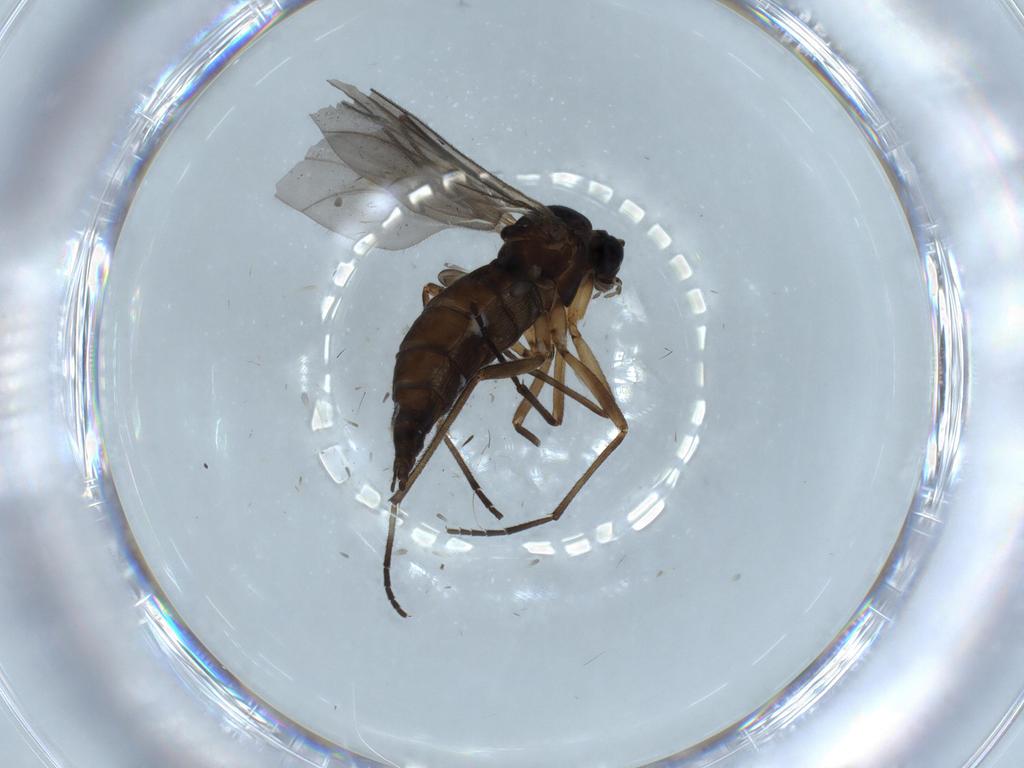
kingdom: Animalia
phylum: Arthropoda
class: Insecta
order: Diptera
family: Sciaridae
